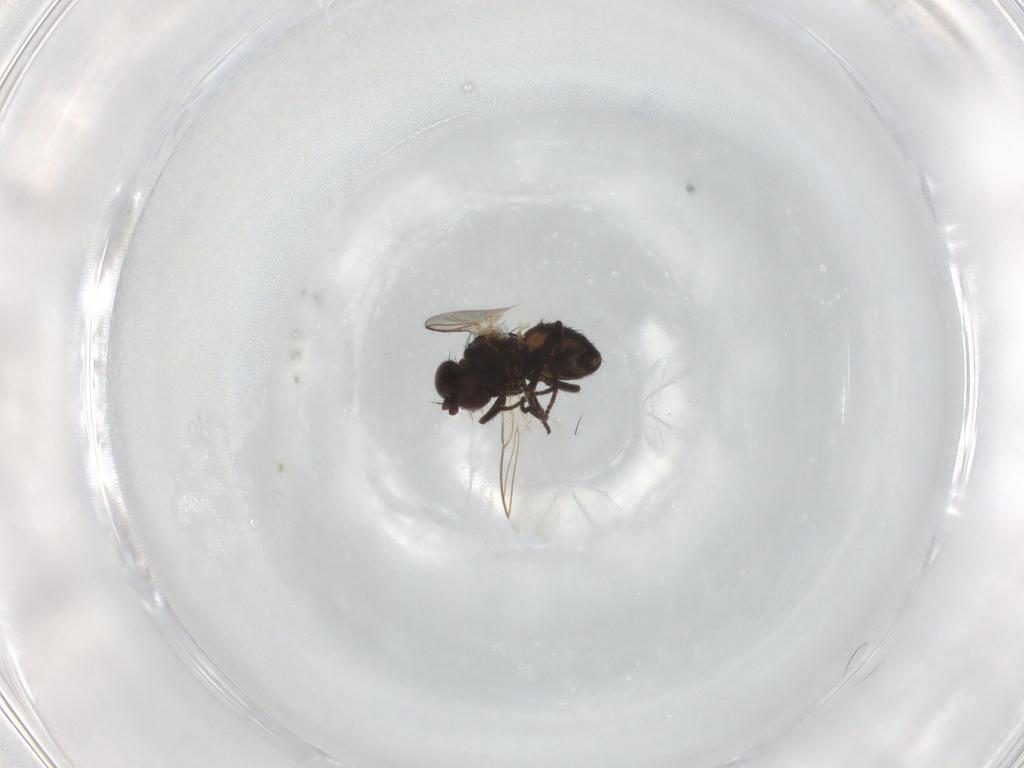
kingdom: Animalia
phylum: Arthropoda
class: Insecta
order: Diptera
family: Agromyzidae
